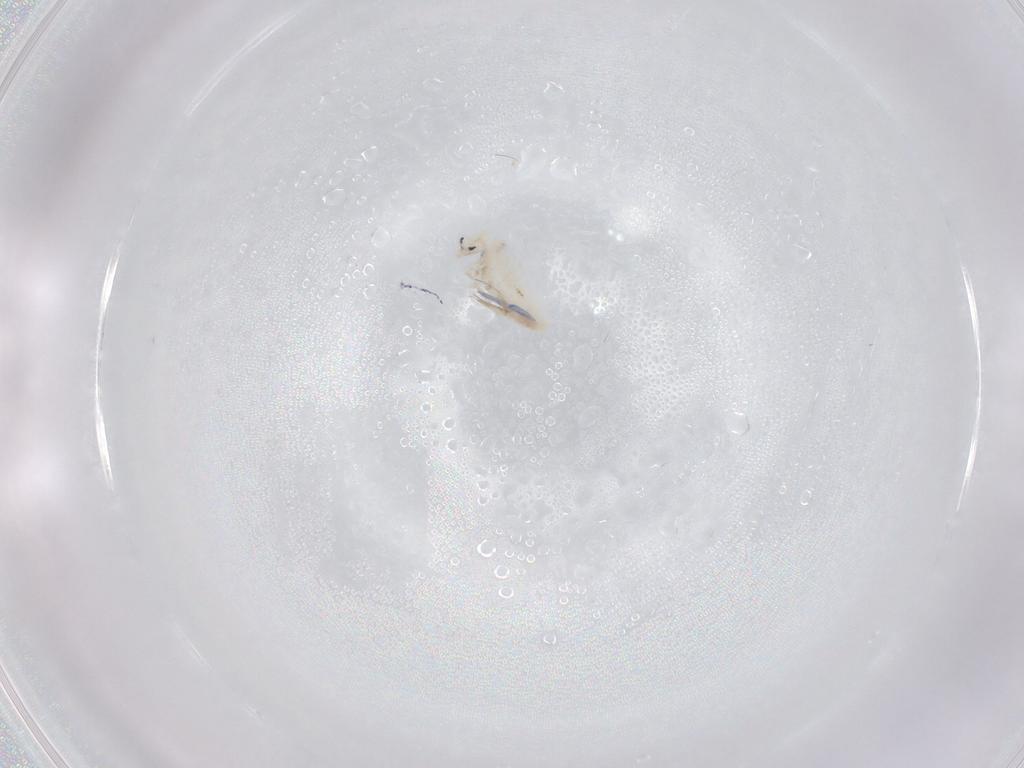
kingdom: Animalia
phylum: Arthropoda
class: Collembola
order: Entomobryomorpha
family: Entomobryidae
